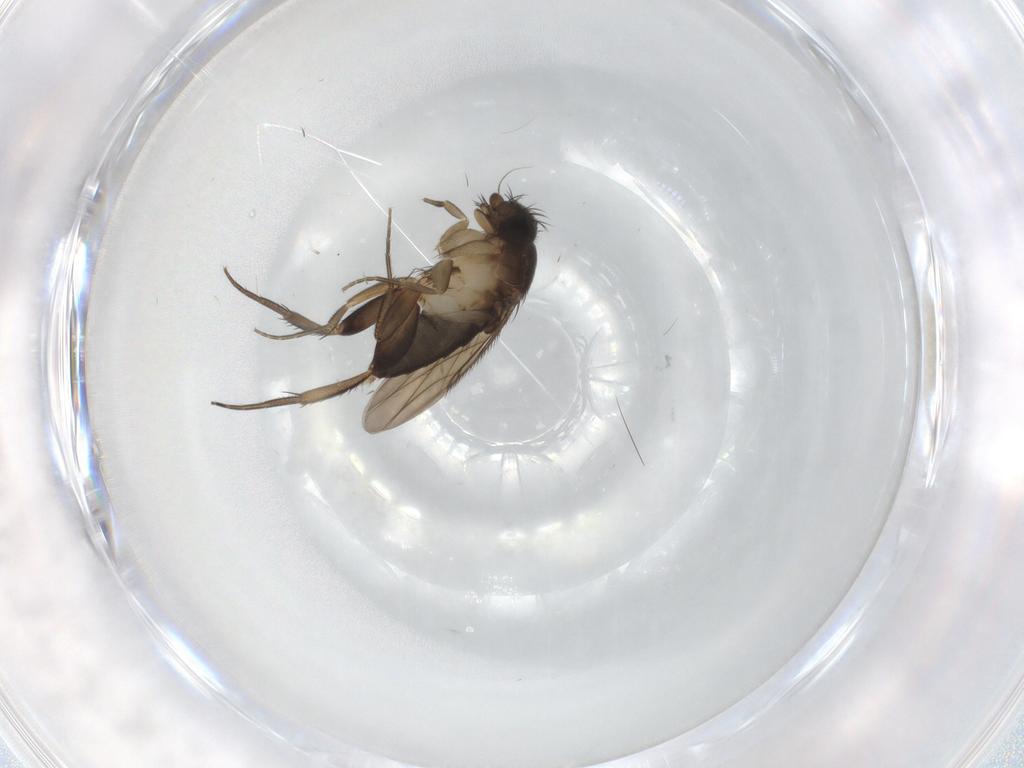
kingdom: Animalia
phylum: Arthropoda
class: Insecta
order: Diptera
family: Phoridae
